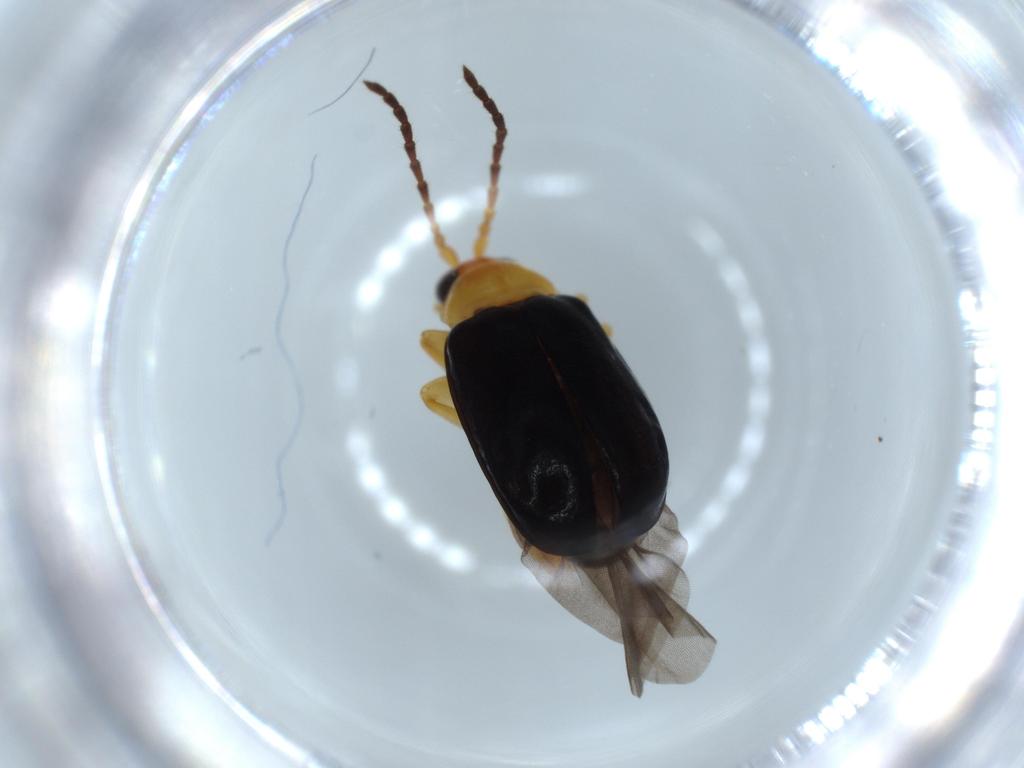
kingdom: Animalia
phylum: Arthropoda
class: Insecta
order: Coleoptera
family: Chrysomelidae
